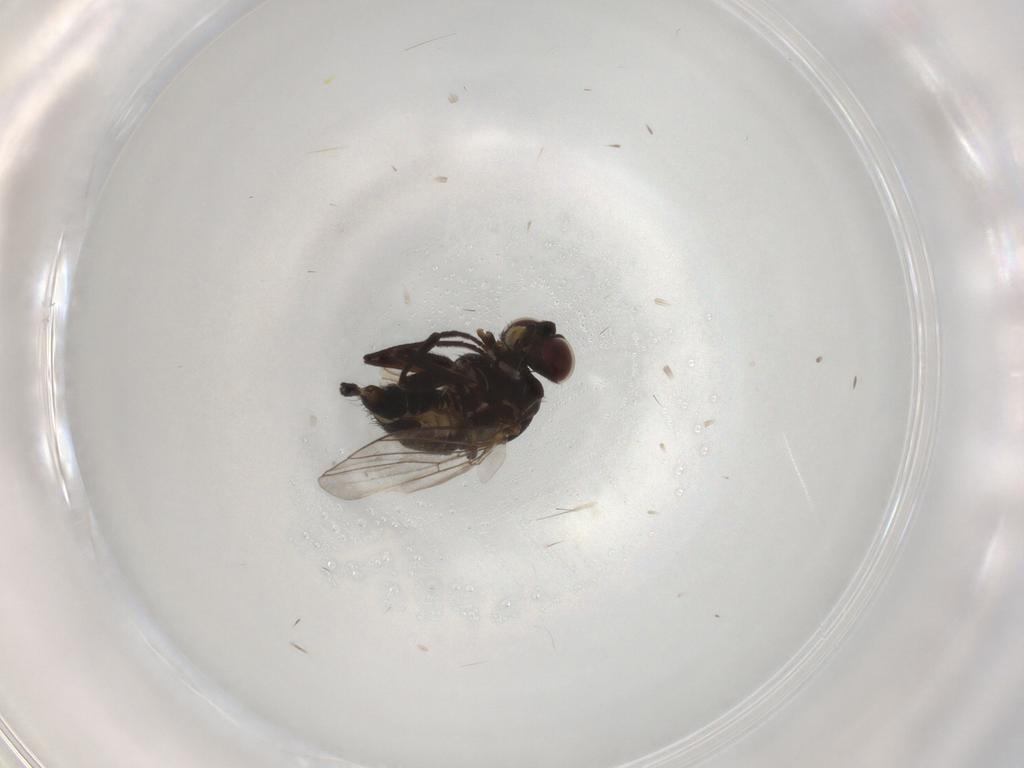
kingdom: Animalia
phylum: Arthropoda
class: Insecta
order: Diptera
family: Agromyzidae
